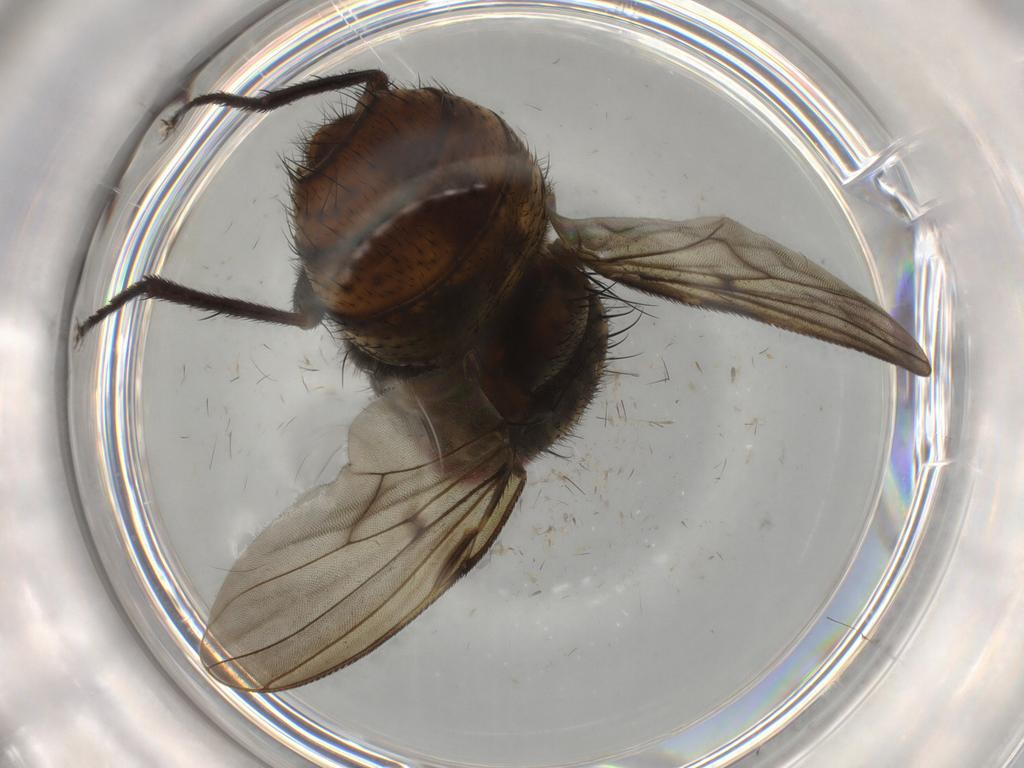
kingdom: Animalia
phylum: Arthropoda
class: Insecta
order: Diptera
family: Psychodidae
